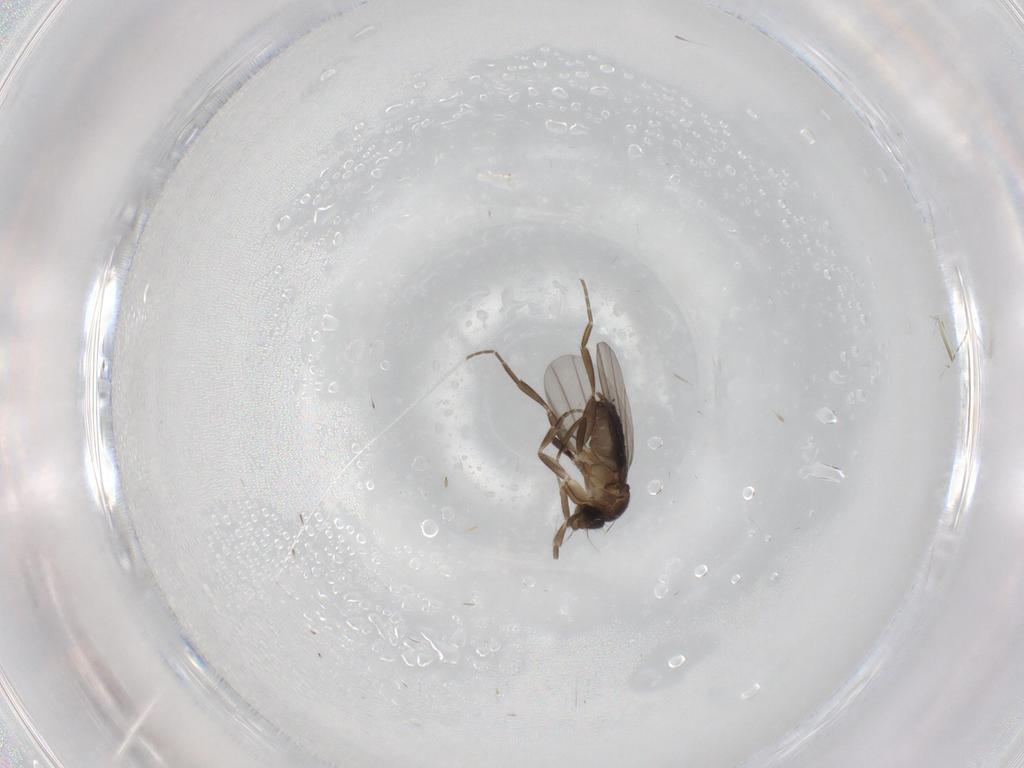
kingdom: Animalia
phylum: Arthropoda
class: Insecta
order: Diptera
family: Phoridae
